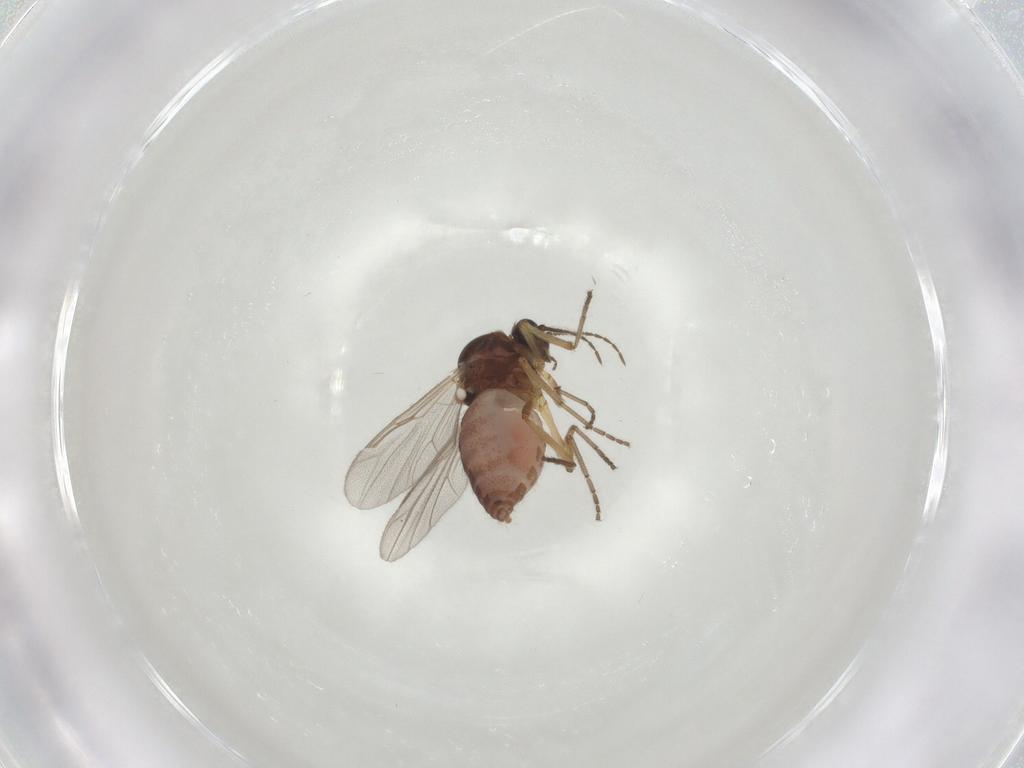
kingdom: Animalia
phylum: Arthropoda
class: Insecta
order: Diptera
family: Ceratopogonidae
